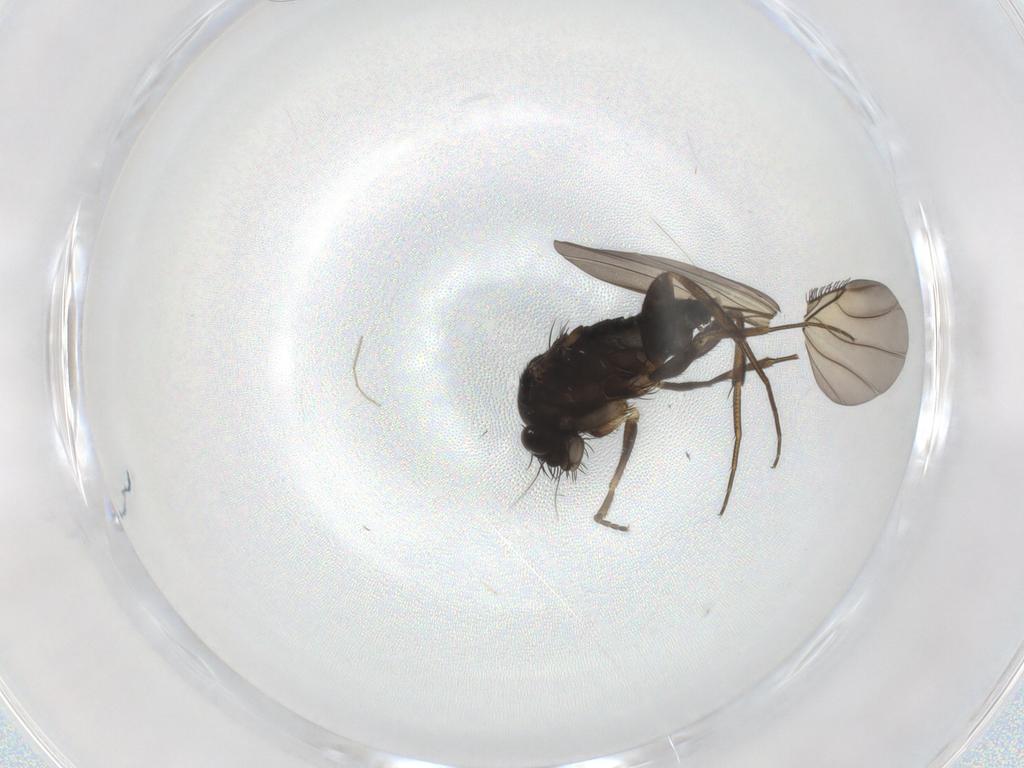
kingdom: Animalia
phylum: Arthropoda
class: Insecta
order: Diptera
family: Phoridae
